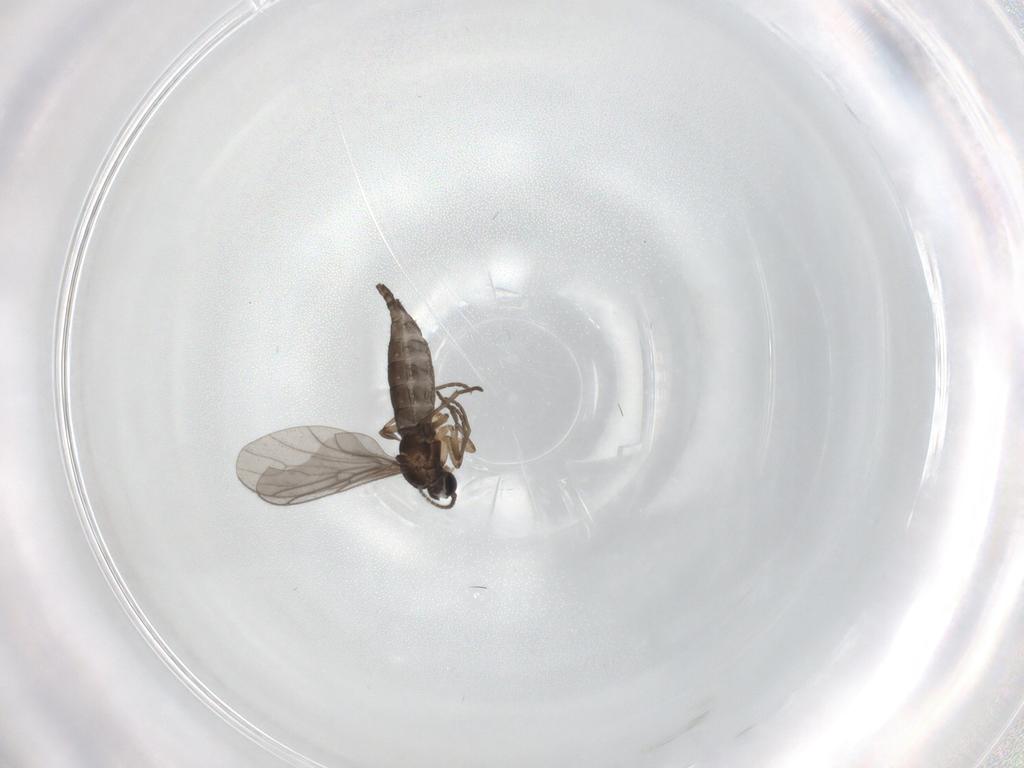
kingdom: Animalia
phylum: Arthropoda
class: Insecta
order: Diptera
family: Sciaridae
